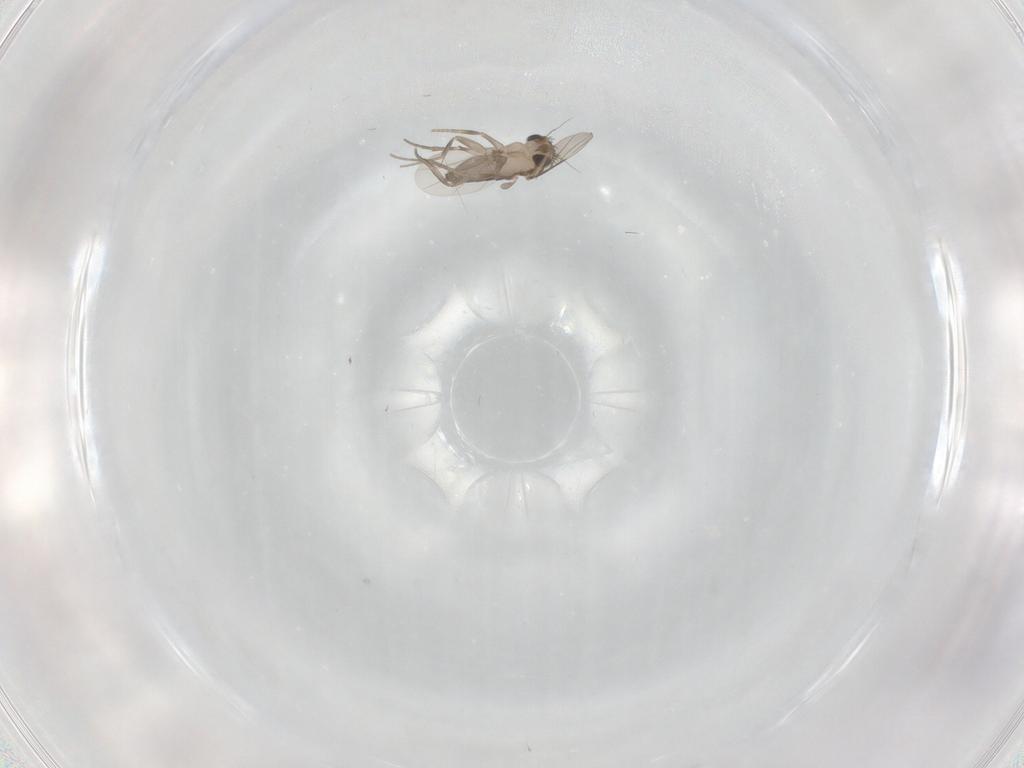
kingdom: Animalia
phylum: Arthropoda
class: Insecta
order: Diptera
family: Phoridae
